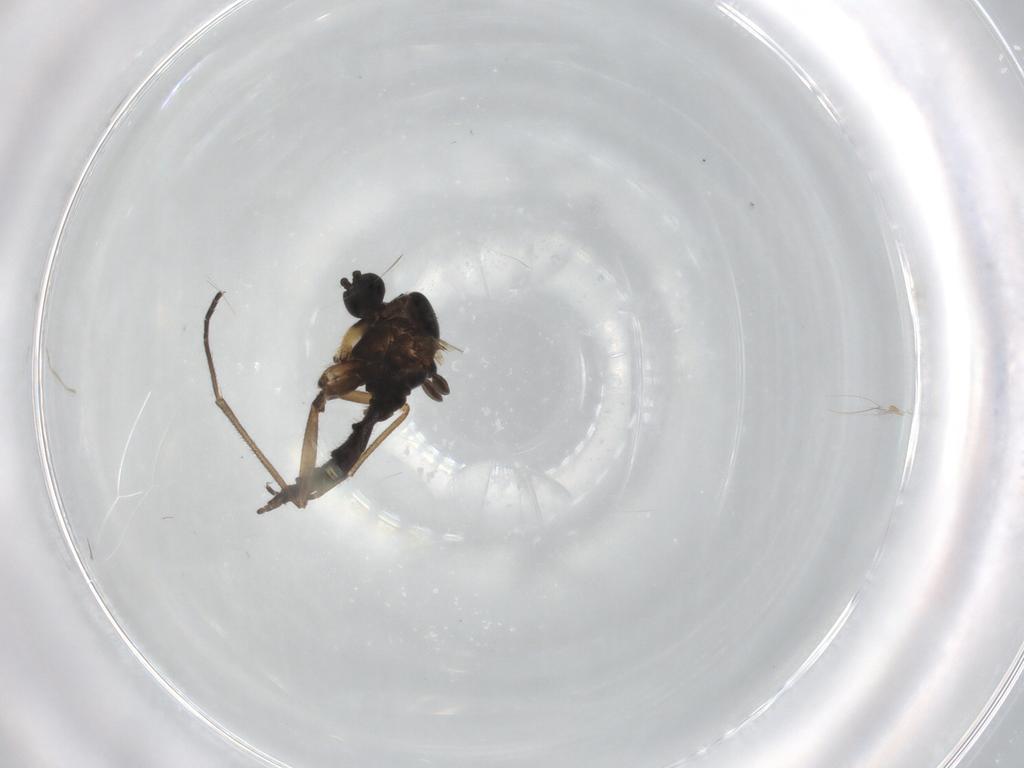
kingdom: Animalia
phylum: Arthropoda
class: Insecta
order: Diptera
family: Sciaridae
